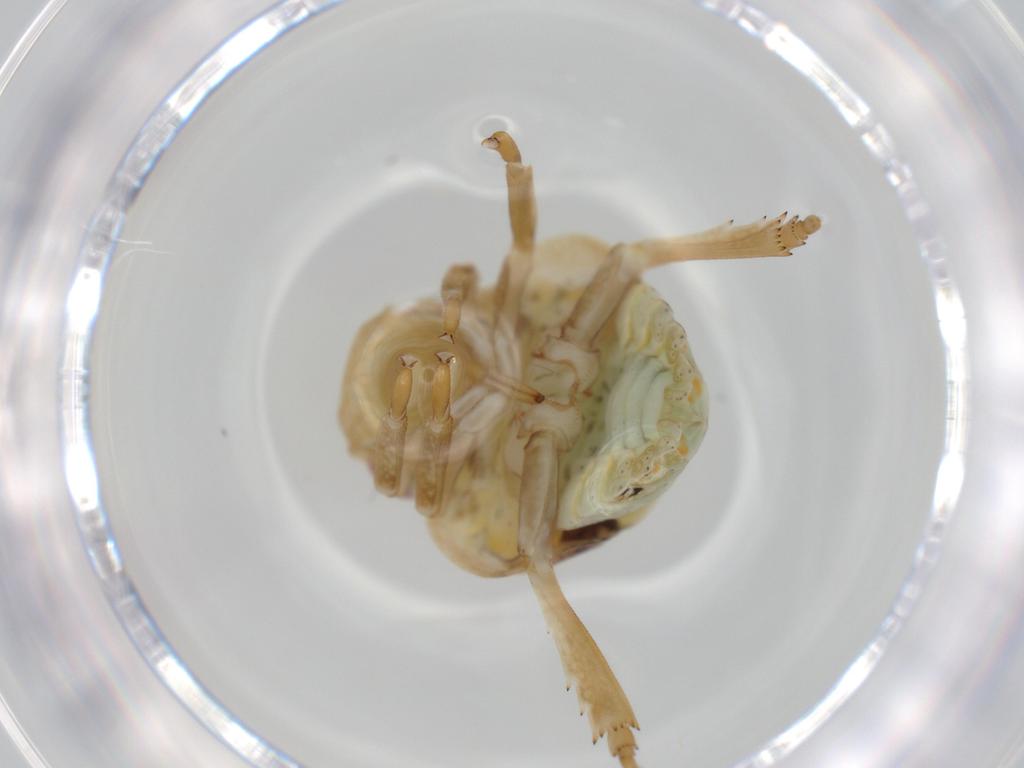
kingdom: Animalia
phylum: Arthropoda
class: Insecta
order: Hemiptera
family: Acanaloniidae
